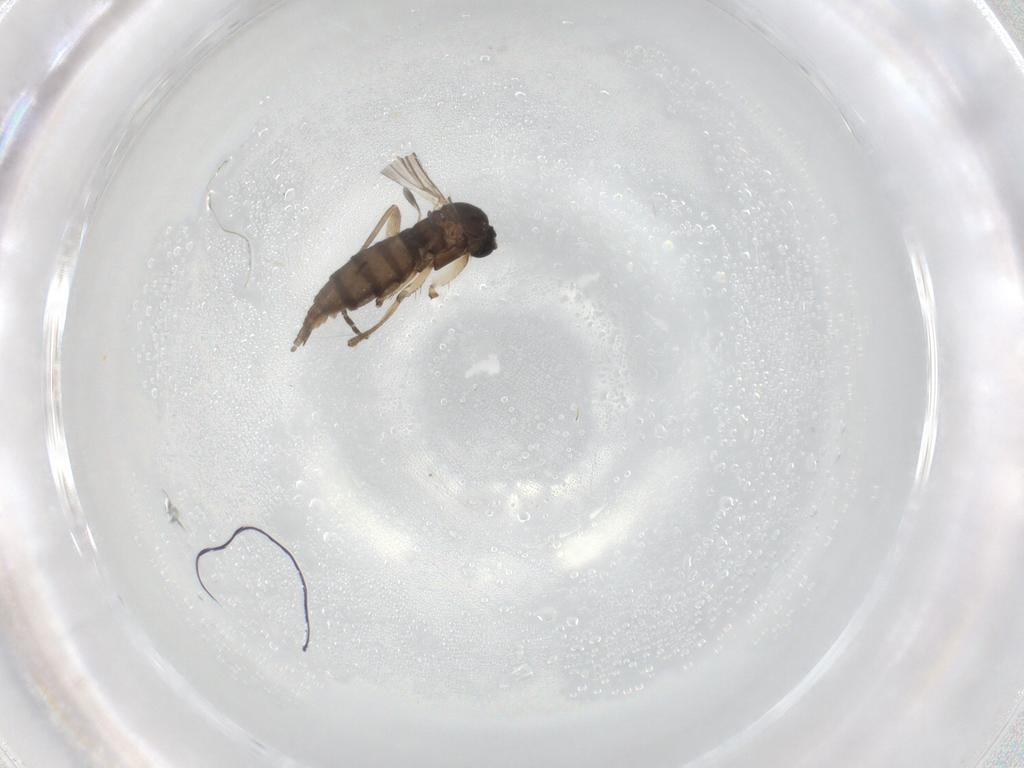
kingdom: Animalia
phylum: Arthropoda
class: Insecta
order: Diptera
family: Sciaridae
